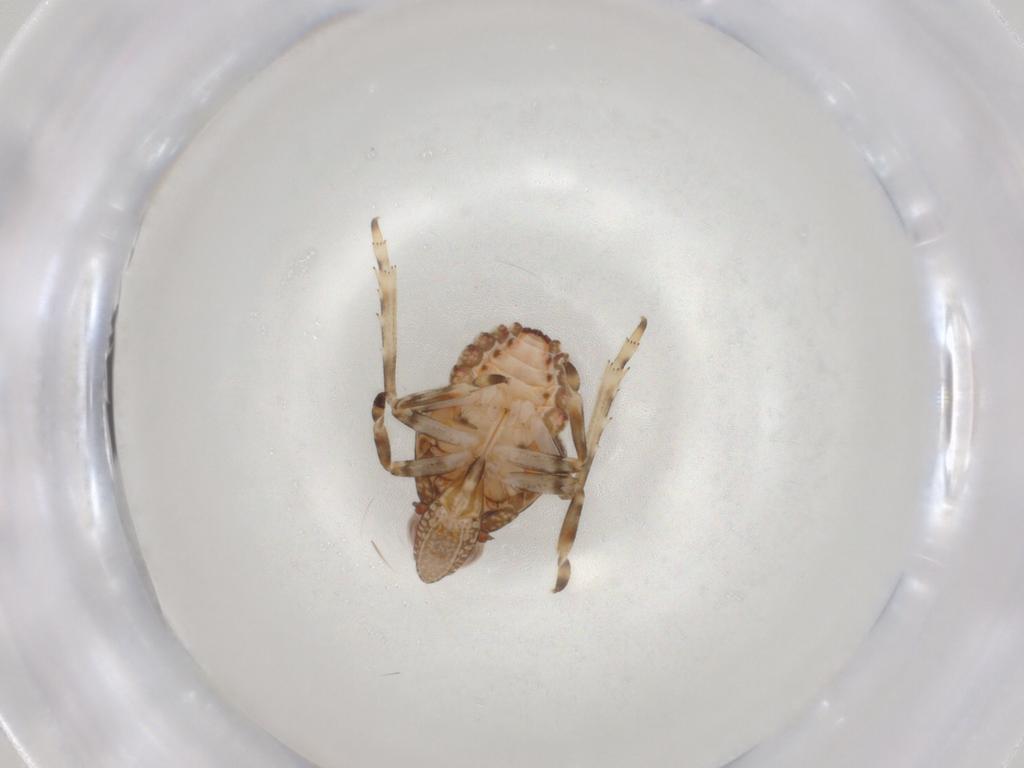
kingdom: Animalia
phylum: Arthropoda
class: Insecta
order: Hemiptera
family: Tropiduchidae
